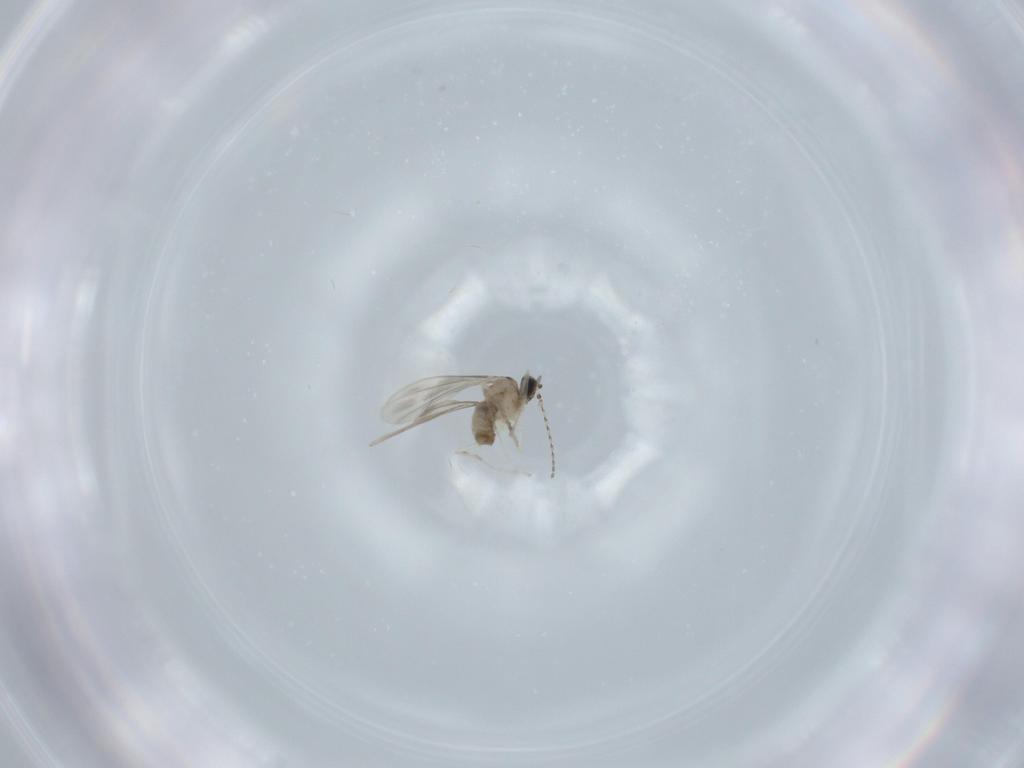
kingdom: Animalia
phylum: Arthropoda
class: Insecta
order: Diptera
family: Cecidomyiidae
